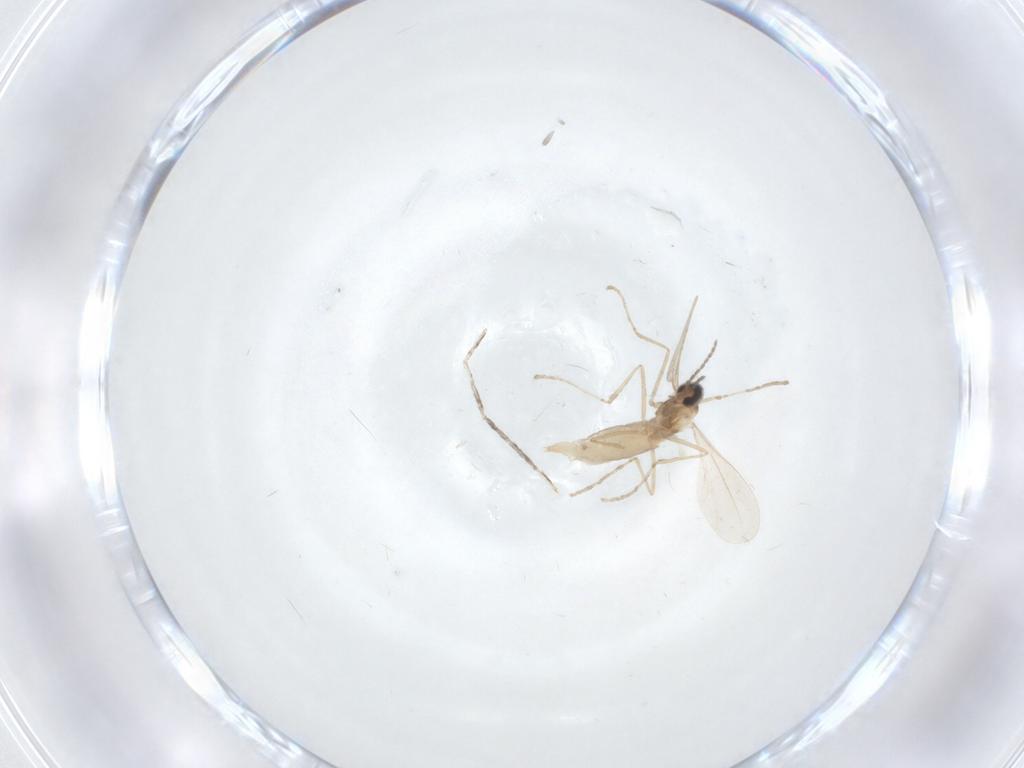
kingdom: Animalia
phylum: Arthropoda
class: Insecta
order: Diptera
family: Cecidomyiidae
